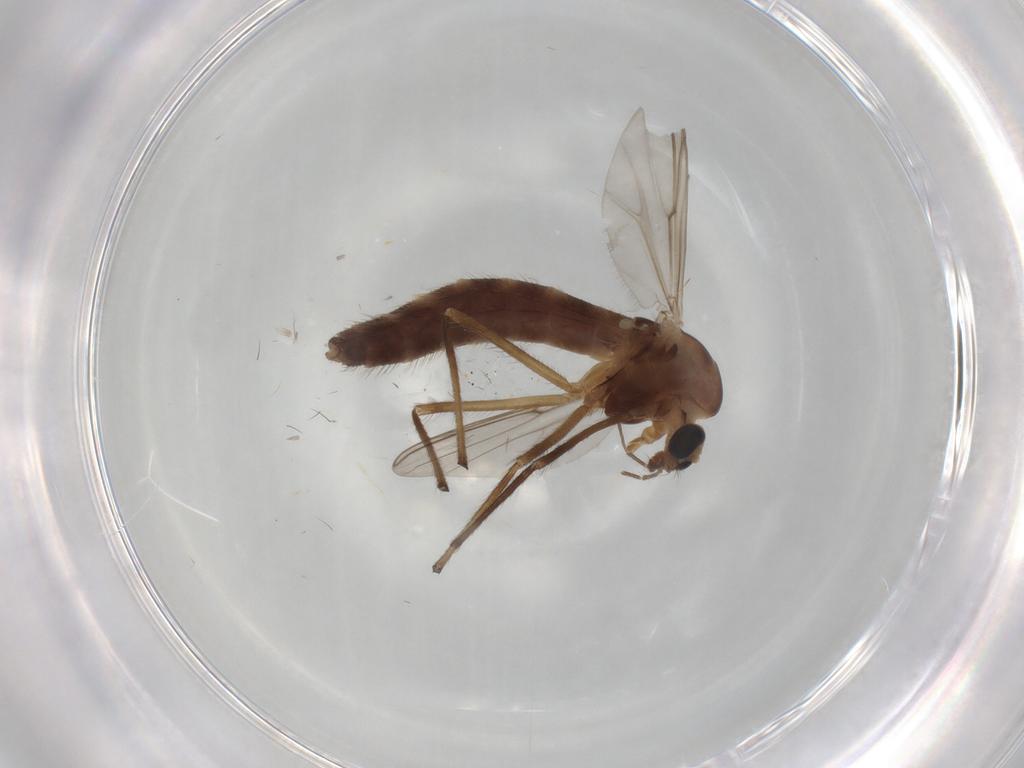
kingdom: Animalia
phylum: Arthropoda
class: Insecta
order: Diptera
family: Chironomidae
